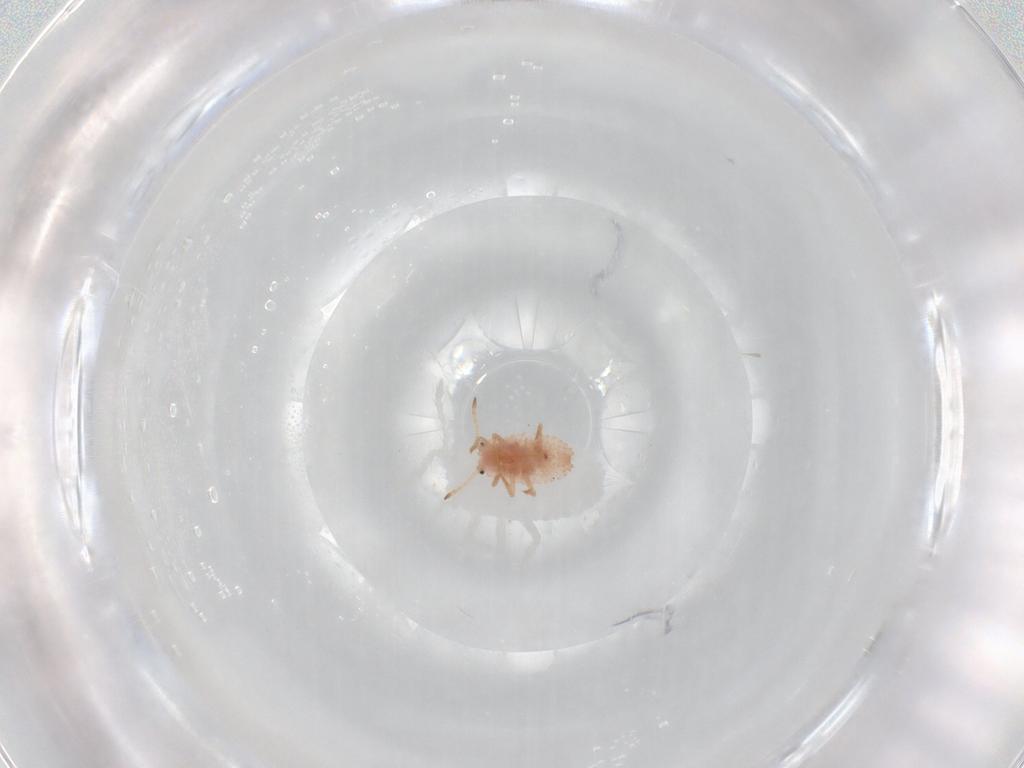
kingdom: Animalia
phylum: Arthropoda
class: Insecta
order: Hemiptera
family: Coccoidea_incertae_sedis
